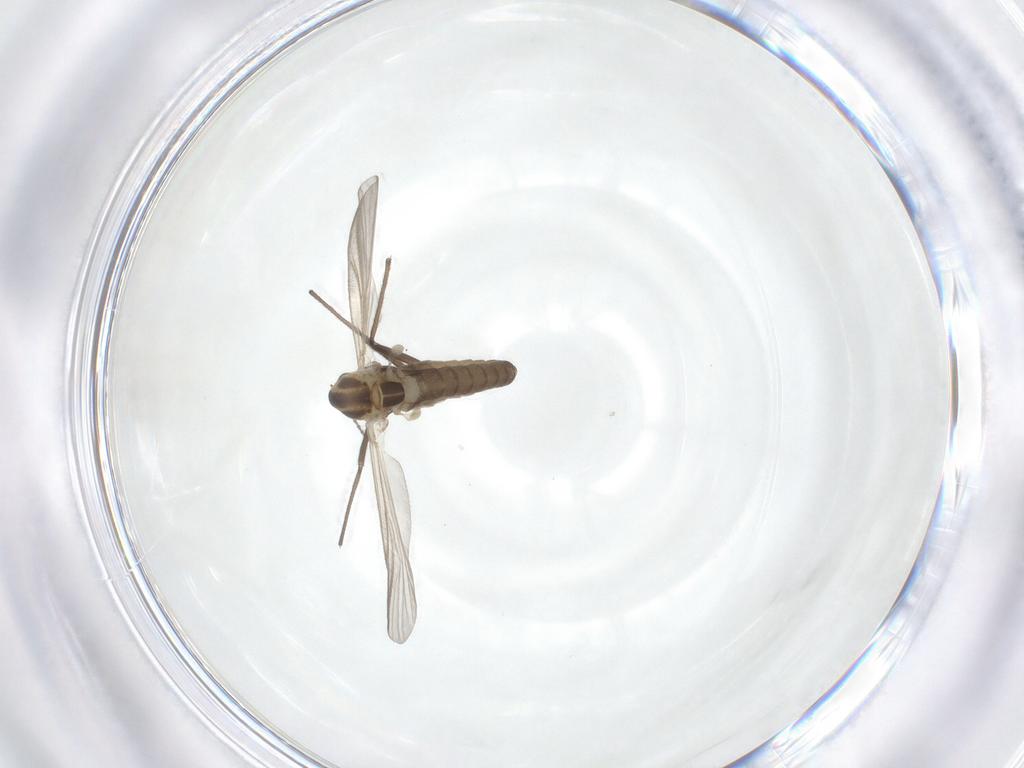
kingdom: Animalia
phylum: Arthropoda
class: Insecta
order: Diptera
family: Chironomidae
